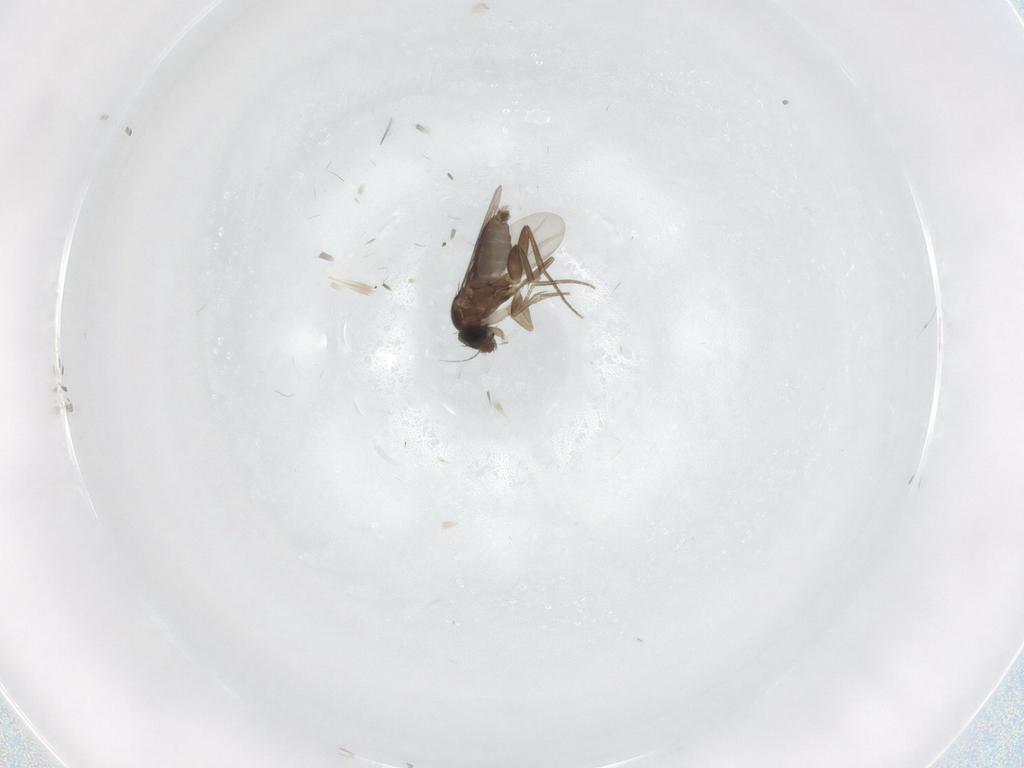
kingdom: Animalia
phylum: Arthropoda
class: Insecta
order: Diptera
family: Phoridae
